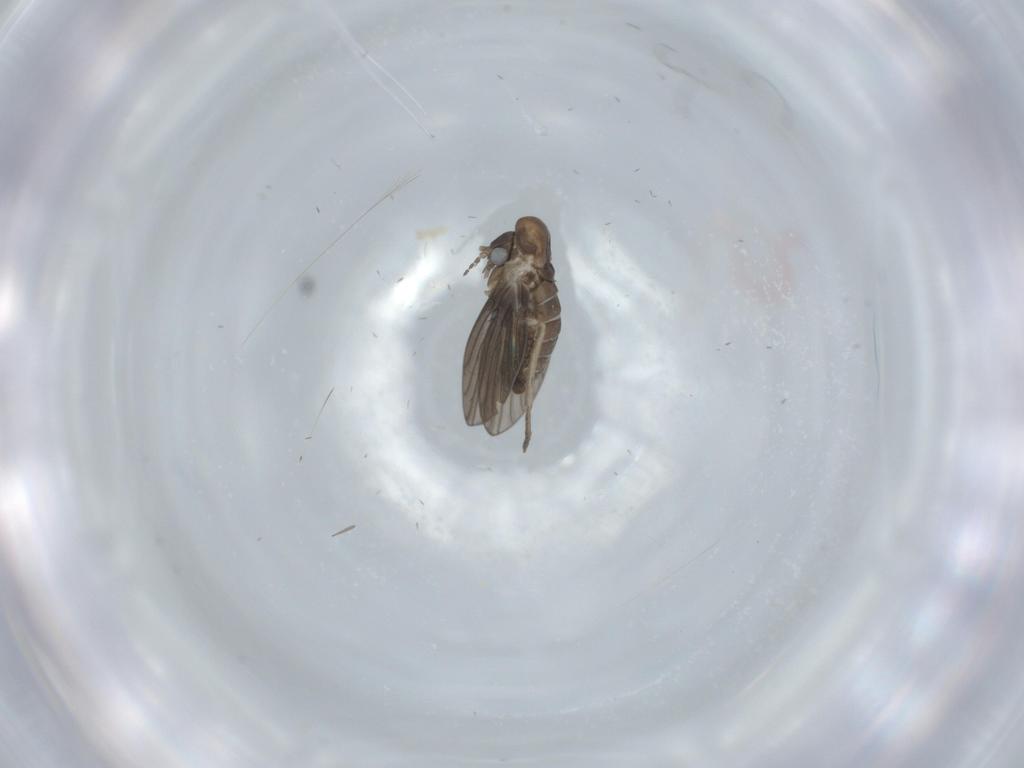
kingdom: Animalia
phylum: Arthropoda
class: Insecta
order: Diptera
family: Psychodidae
